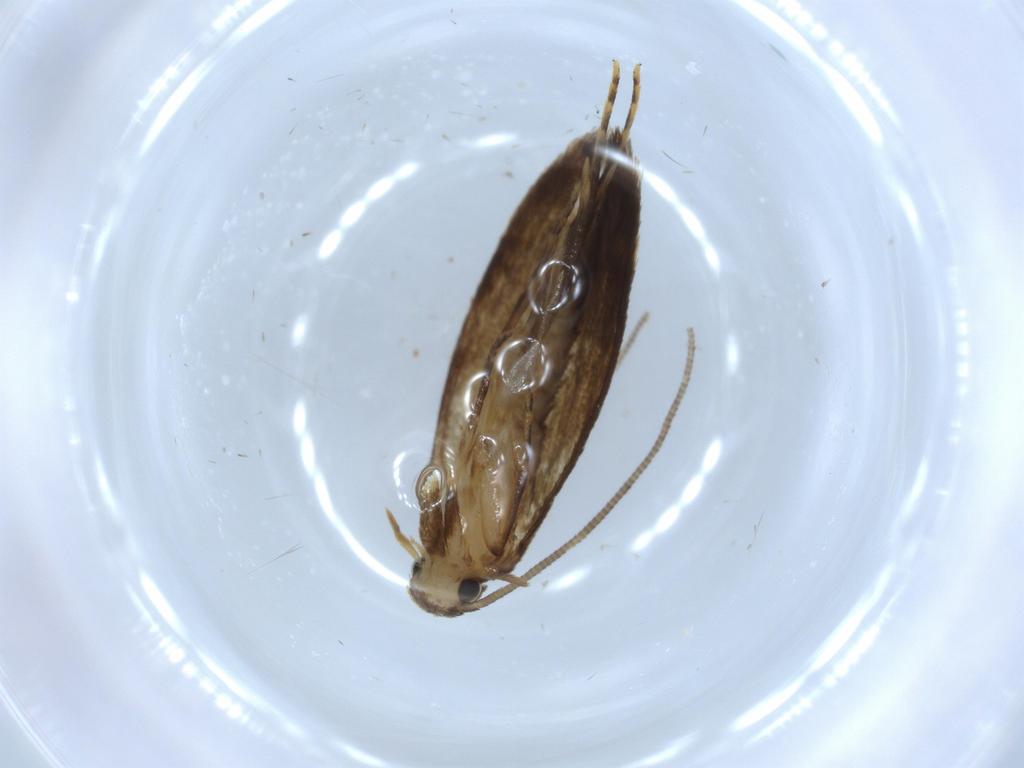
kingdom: Animalia
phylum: Arthropoda
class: Insecta
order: Lepidoptera
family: Tineidae
